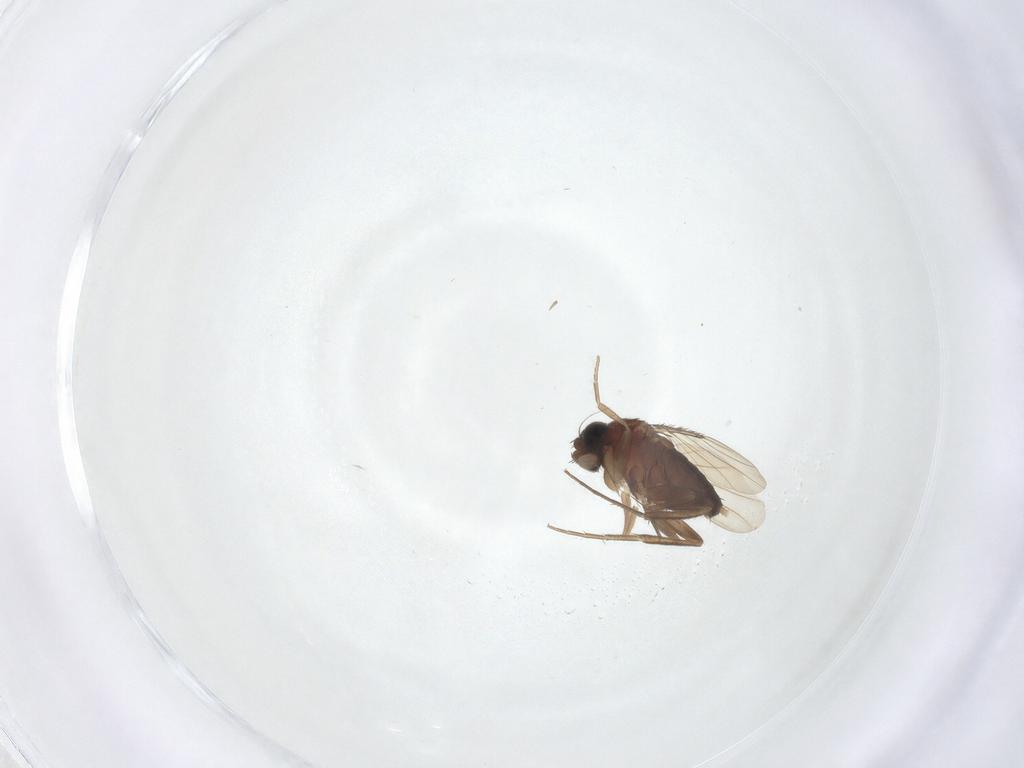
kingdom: Animalia
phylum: Arthropoda
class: Insecta
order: Diptera
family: Phoridae
